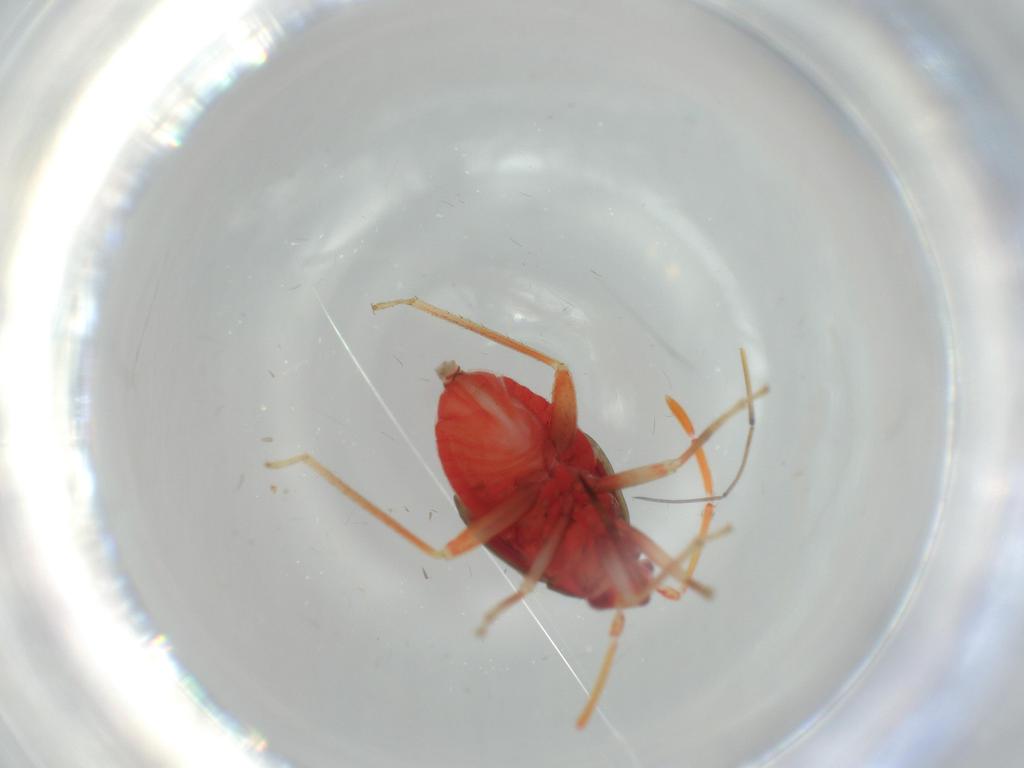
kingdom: Animalia
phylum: Arthropoda
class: Insecta
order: Hemiptera
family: Miridae
